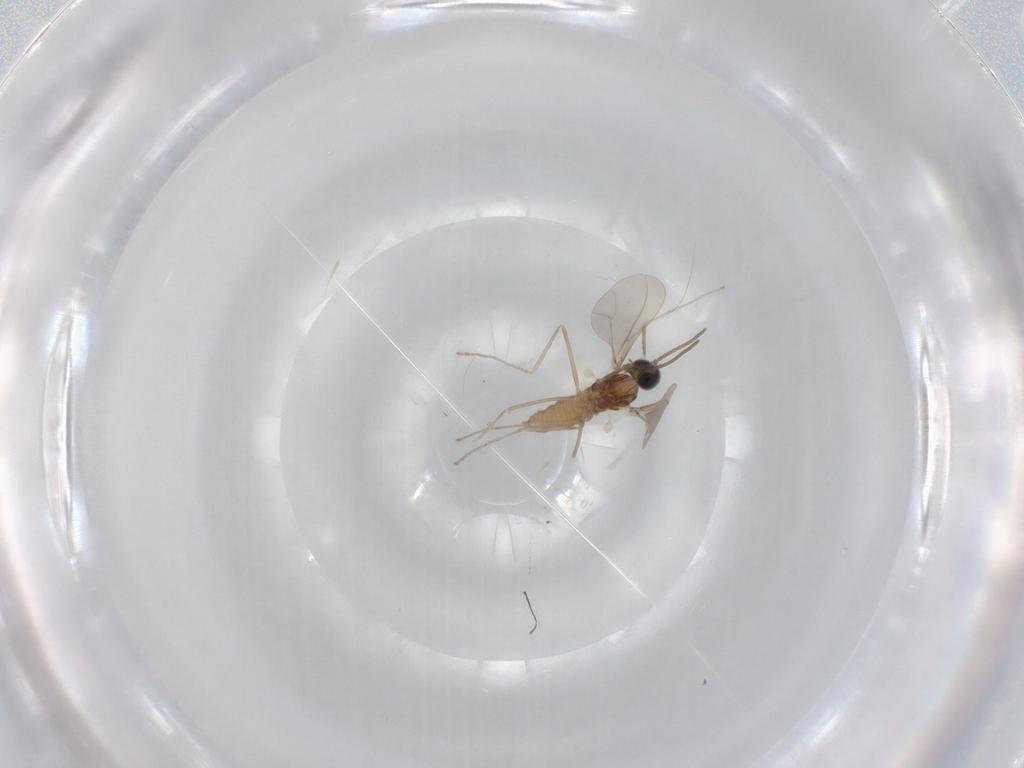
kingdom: Animalia
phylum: Arthropoda
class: Insecta
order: Diptera
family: Cecidomyiidae
